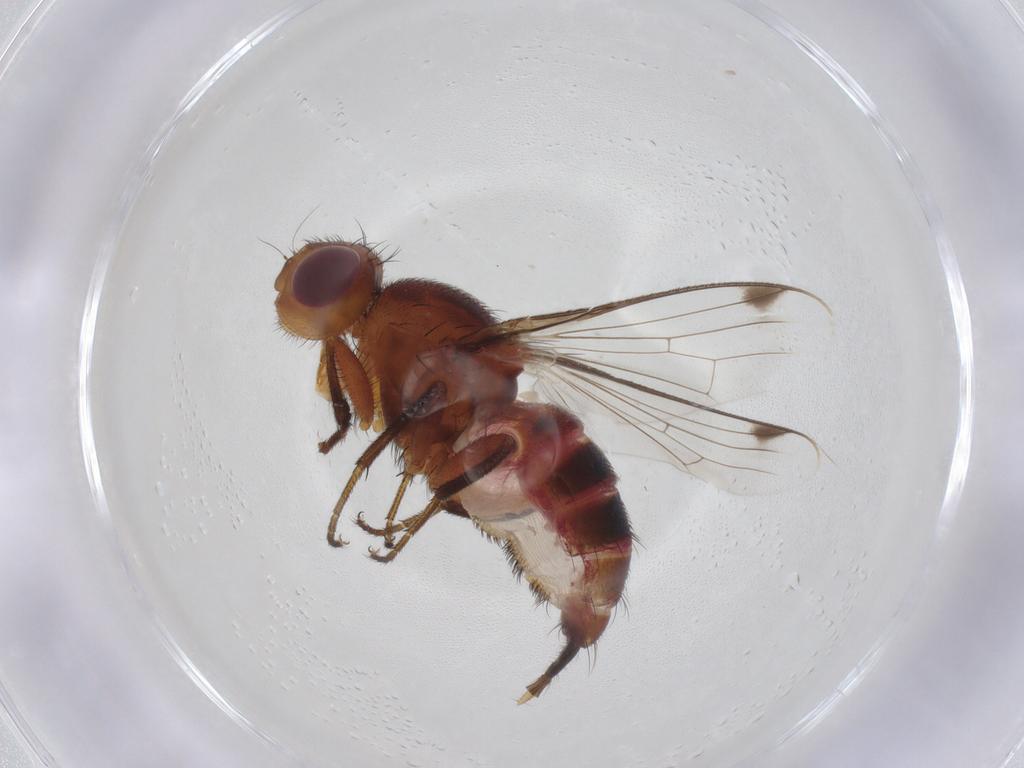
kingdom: Animalia
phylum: Arthropoda
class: Insecta
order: Diptera
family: Richardiidae
